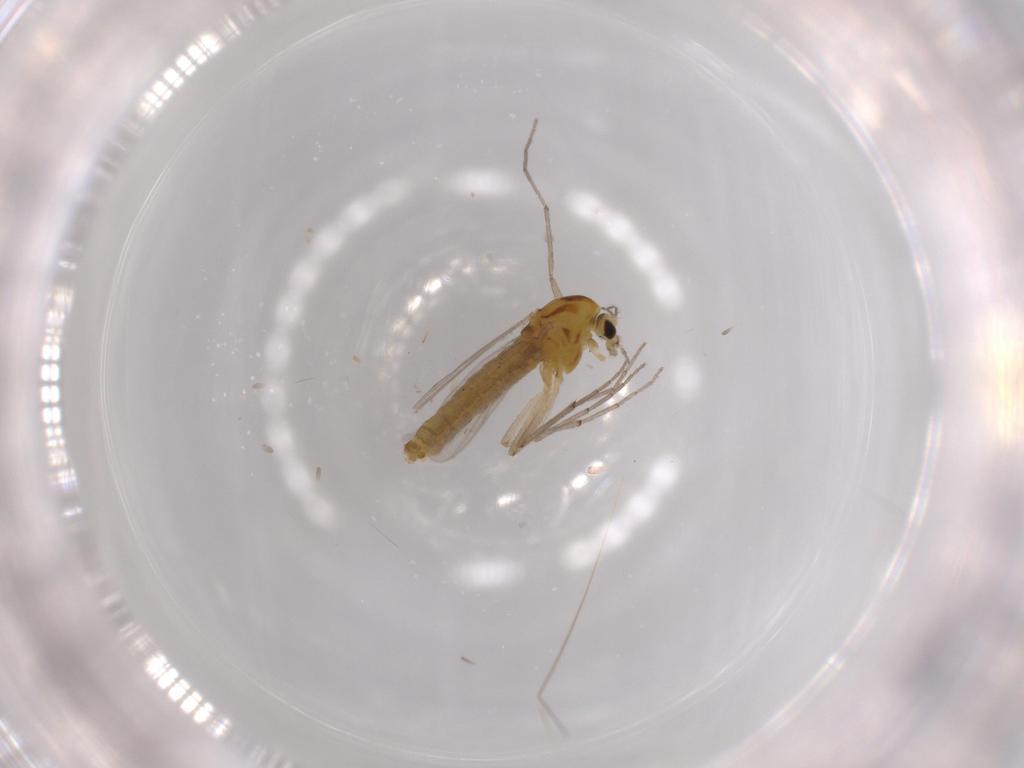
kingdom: Animalia
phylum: Arthropoda
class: Insecta
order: Diptera
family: Chironomidae
